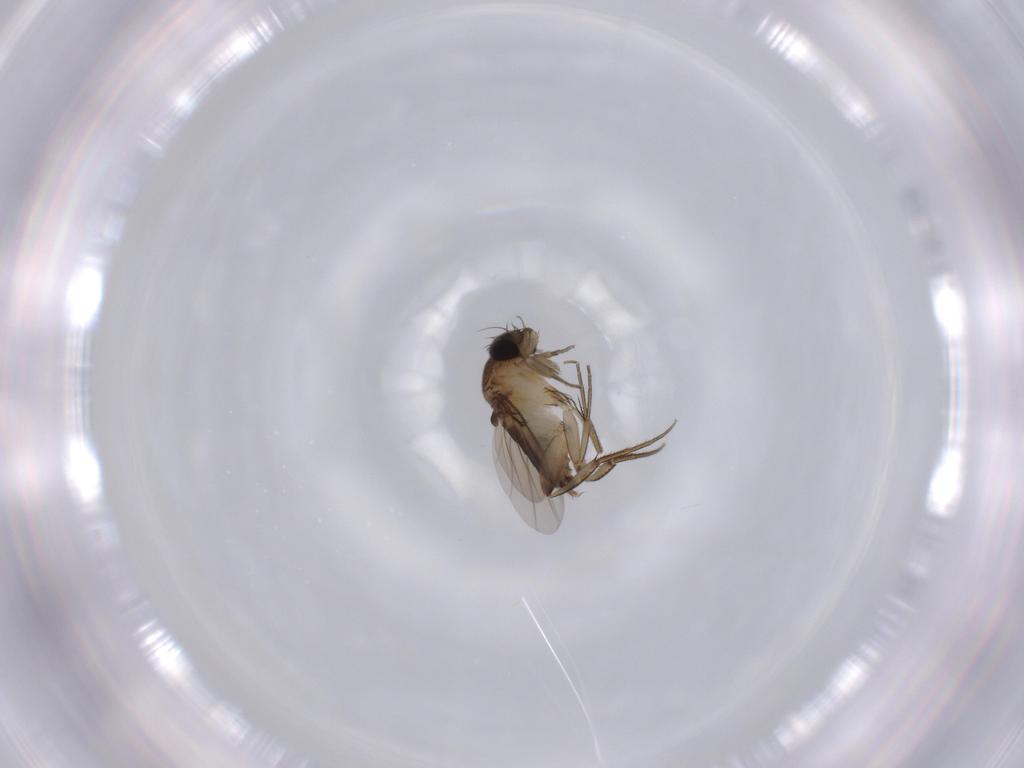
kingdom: Animalia
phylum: Arthropoda
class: Insecta
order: Diptera
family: Phoridae
